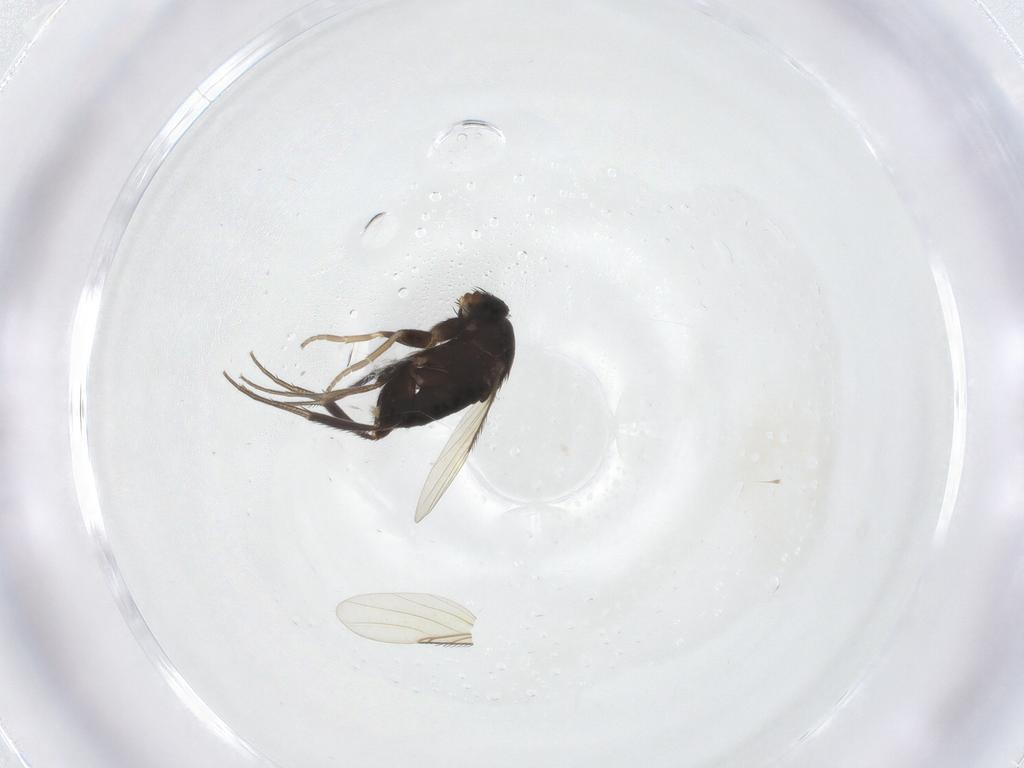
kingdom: Animalia
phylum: Arthropoda
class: Insecta
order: Diptera
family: Phoridae
